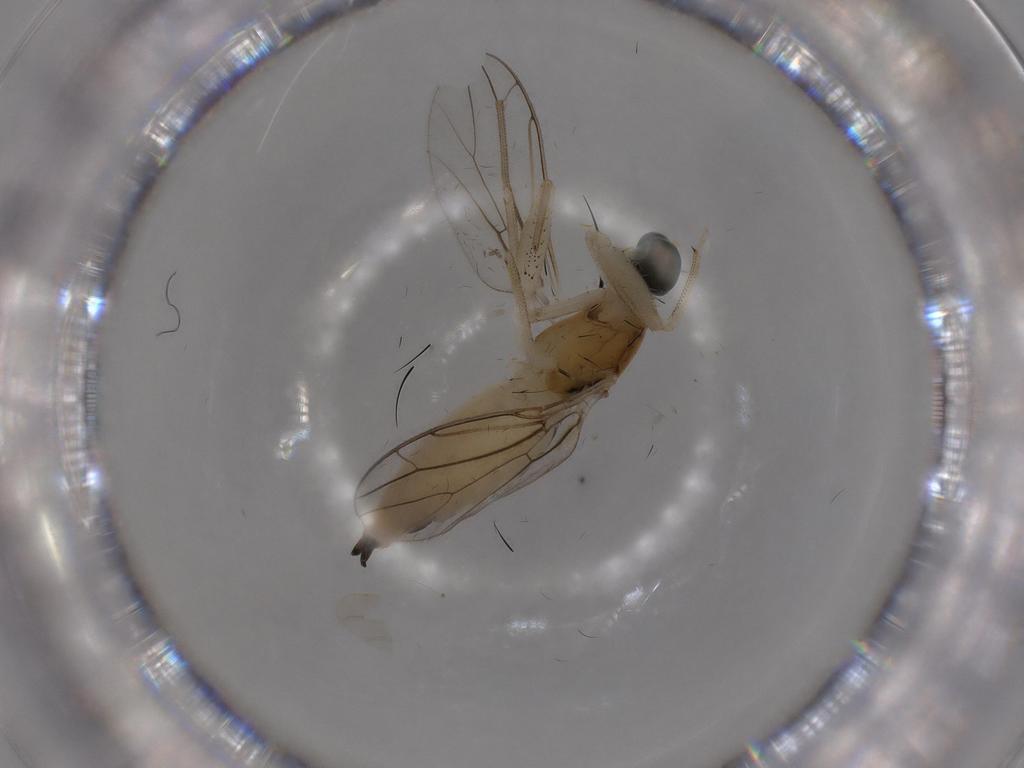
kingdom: Animalia
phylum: Arthropoda
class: Insecta
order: Diptera
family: Empididae
